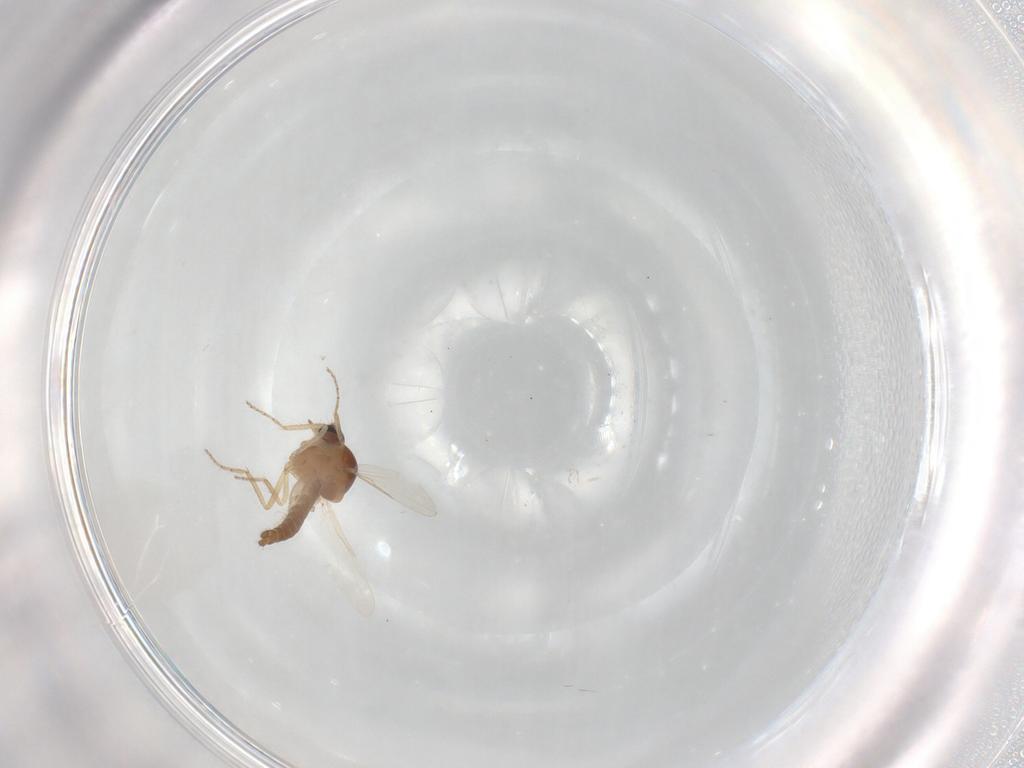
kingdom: Animalia
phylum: Arthropoda
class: Insecta
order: Diptera
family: Ceratopogonidae
